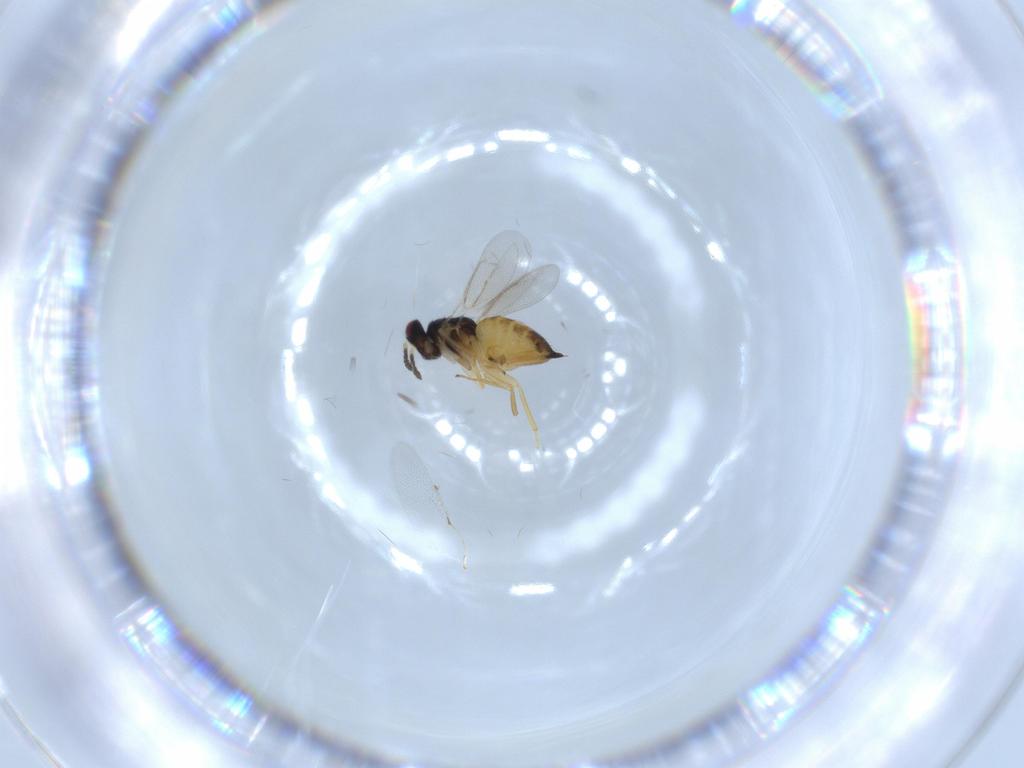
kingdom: Animalia
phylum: Arthropoda
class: Insecta
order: Hymenoptera
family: Eulophidae
